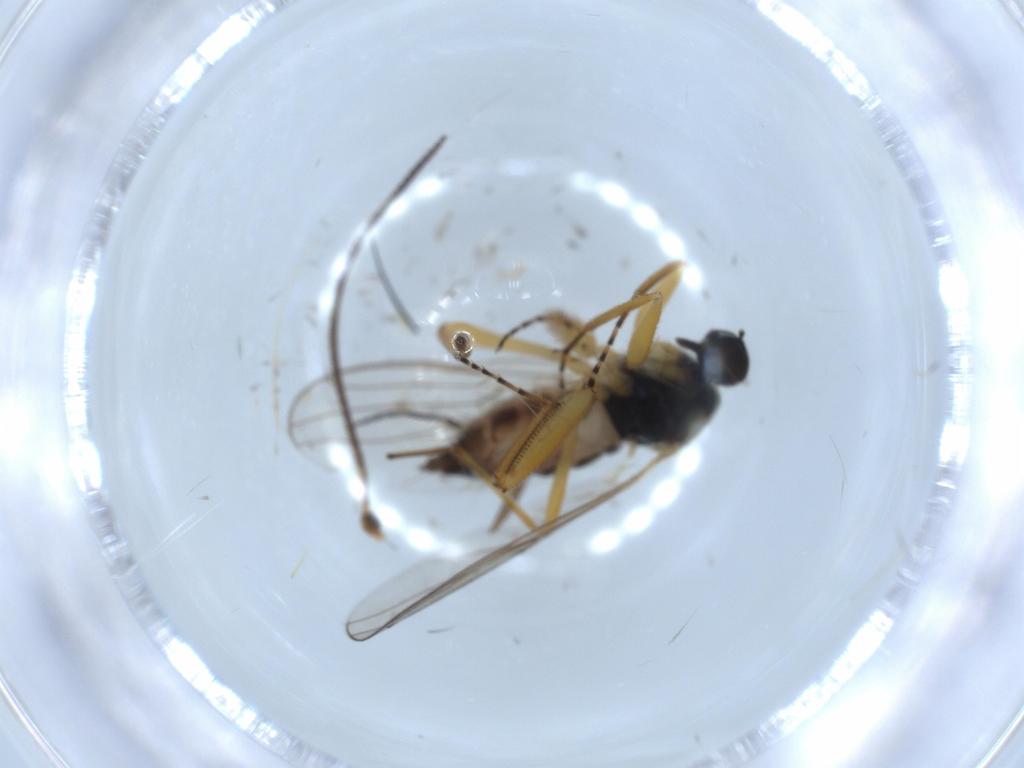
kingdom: Animalia
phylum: Arthropoda
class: Insecta
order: Diptera
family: Hybotidae
